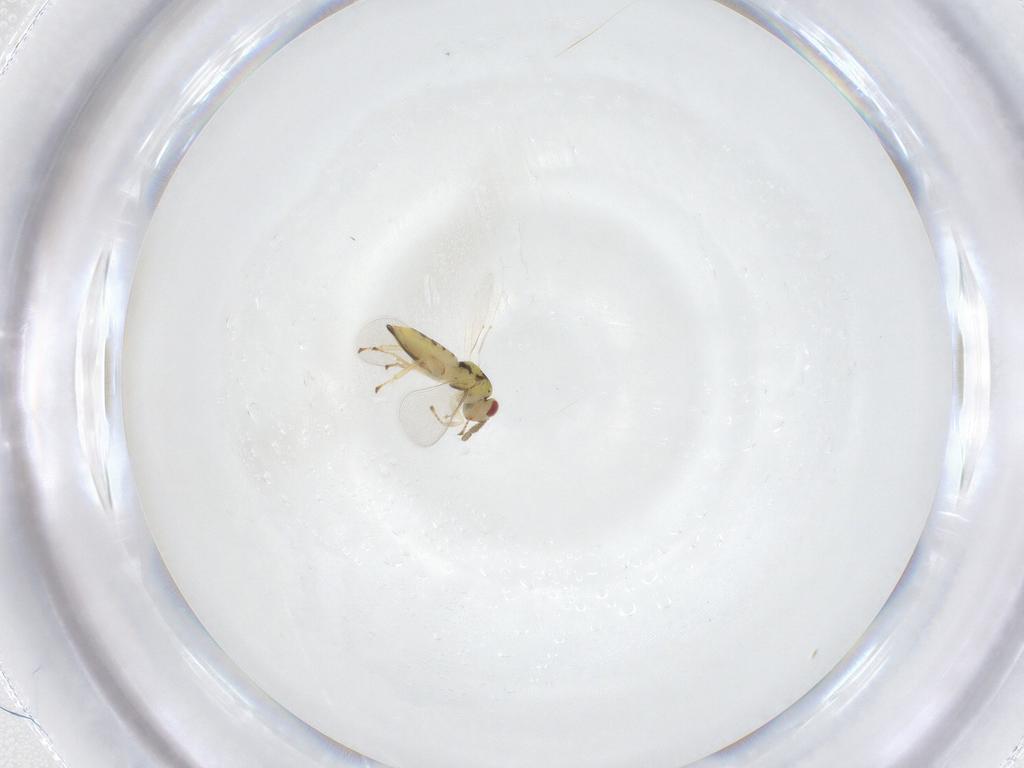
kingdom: Animalia
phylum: Arthropoda
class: Insecta
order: Hymenoptera
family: Eulophidae
